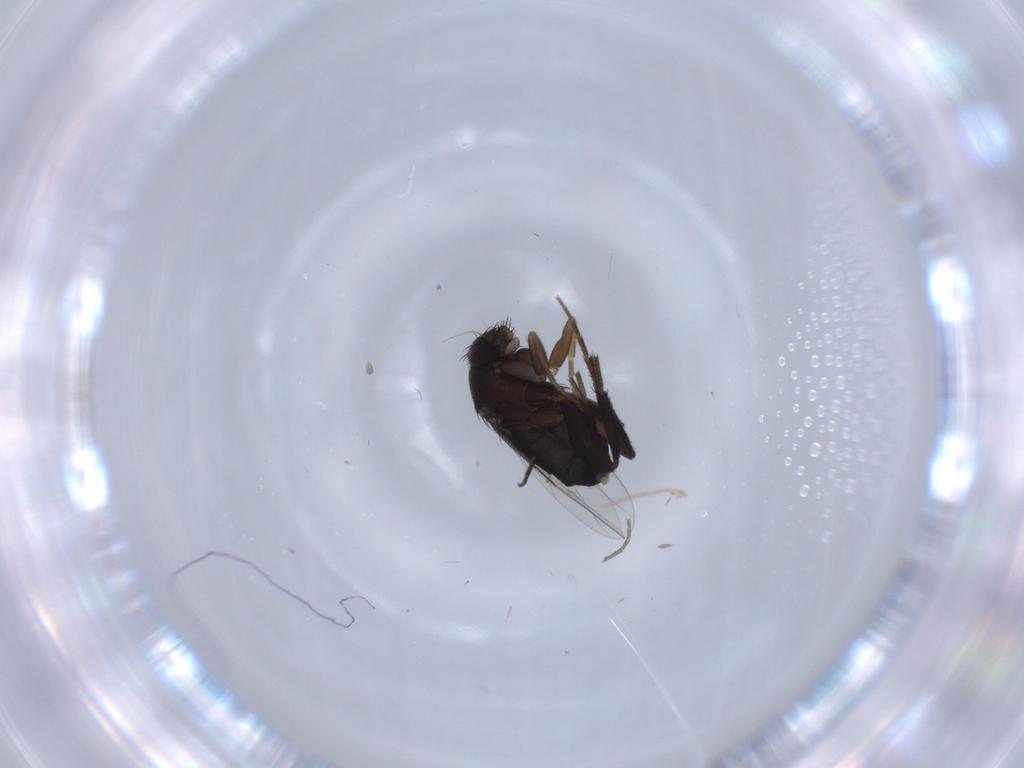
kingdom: Animalia
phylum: Arthropoda
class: Insecta
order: Diptera
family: Phoridae
